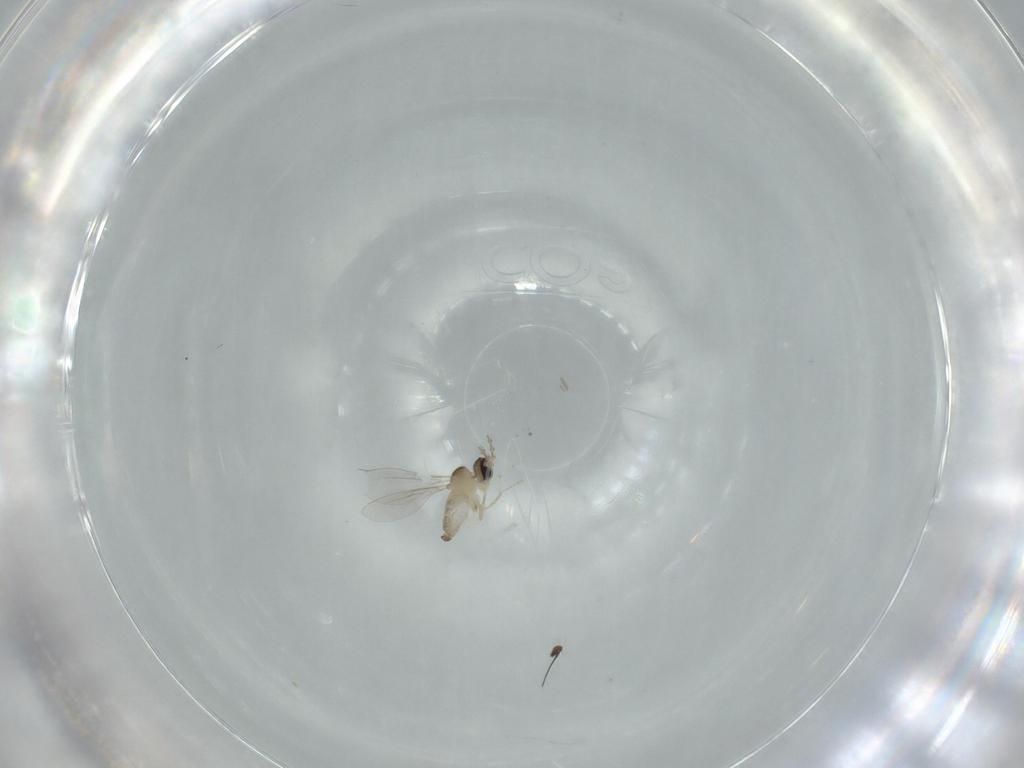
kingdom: Animalia
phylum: Arthropoda
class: Insecta
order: Diptera
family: Cecidomyiidae
